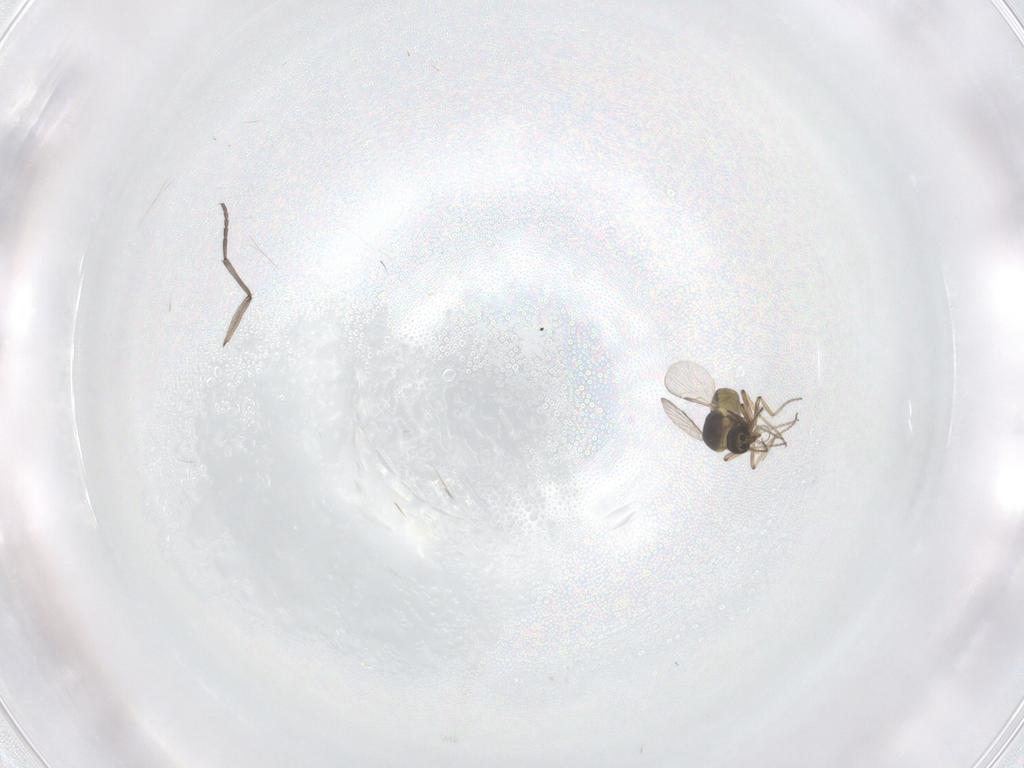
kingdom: Animalia
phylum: Arthropoda
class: Insecta
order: Diptera
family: Ceratopogonidae
